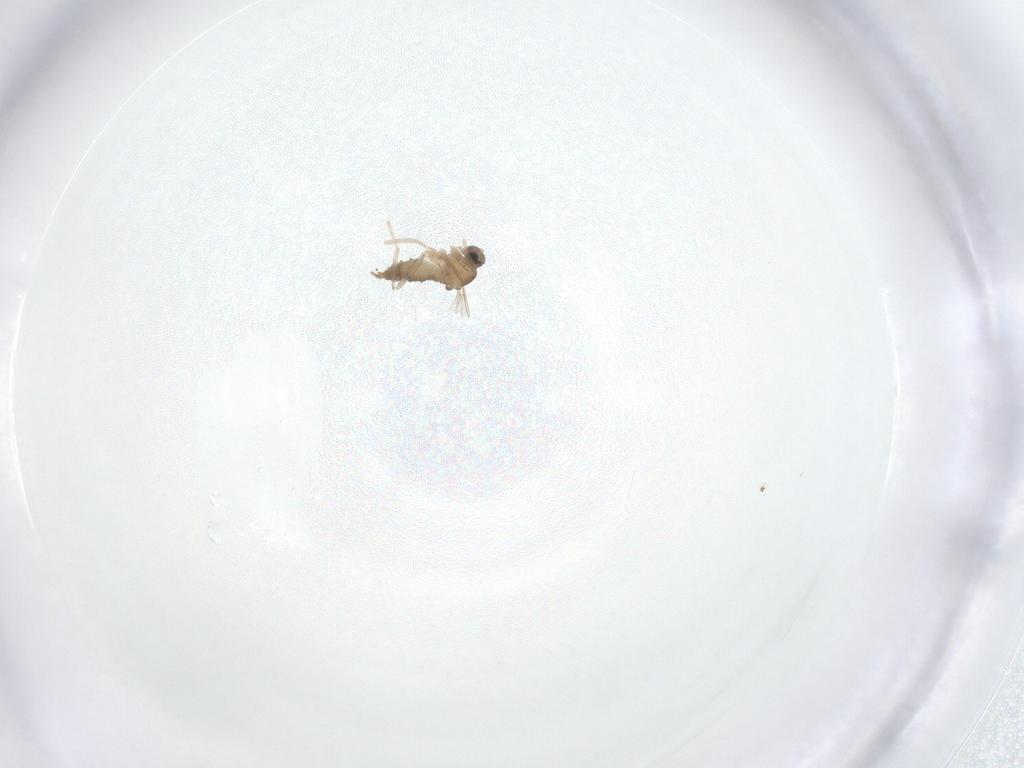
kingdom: Animalia
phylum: Arthropoda
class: Insecta
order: Diptera
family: Cecidomyiidae
